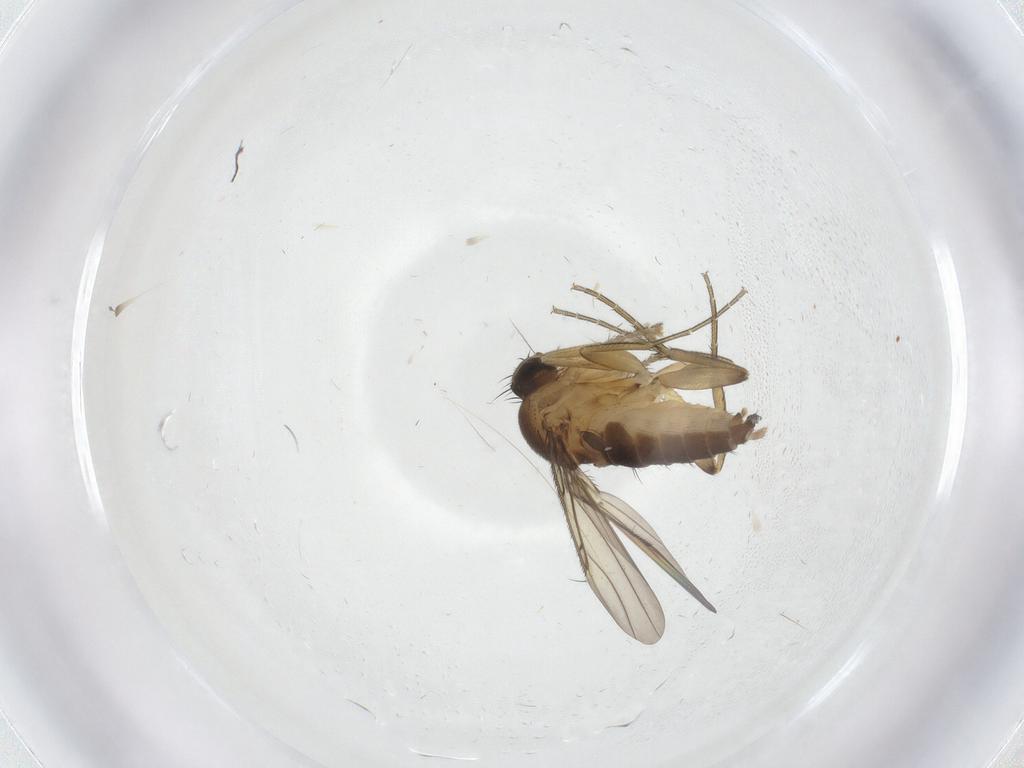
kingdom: Animalia
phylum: Arthropoda
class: Insecta
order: Diptera
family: Phoridae
